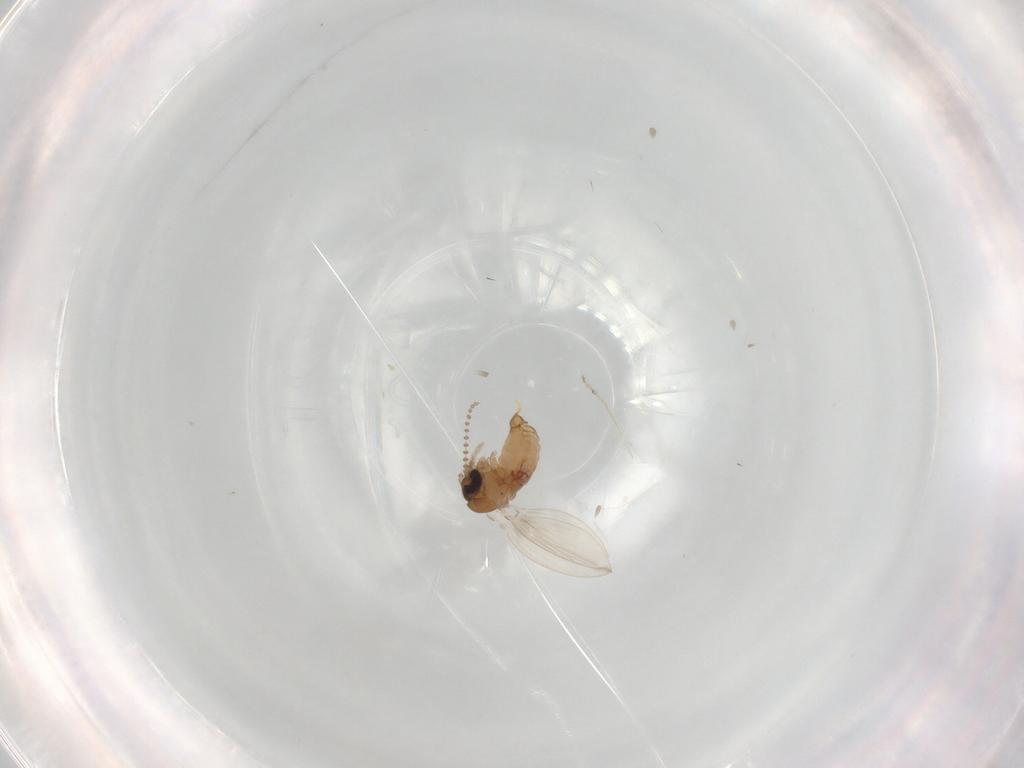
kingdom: Animalia
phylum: Arthropoda
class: Insecta
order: Diptera
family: Psychodidae
